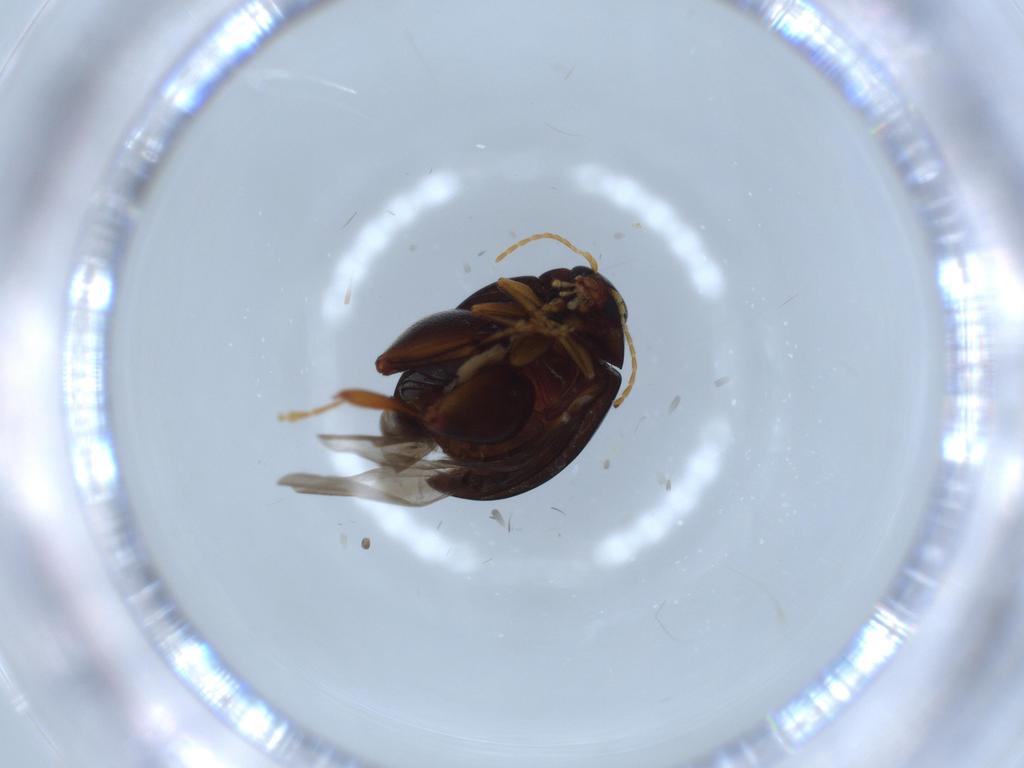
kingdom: Animalia
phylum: Arthropoda
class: Insecta
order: Coleoptera
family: Chrysomelidae
